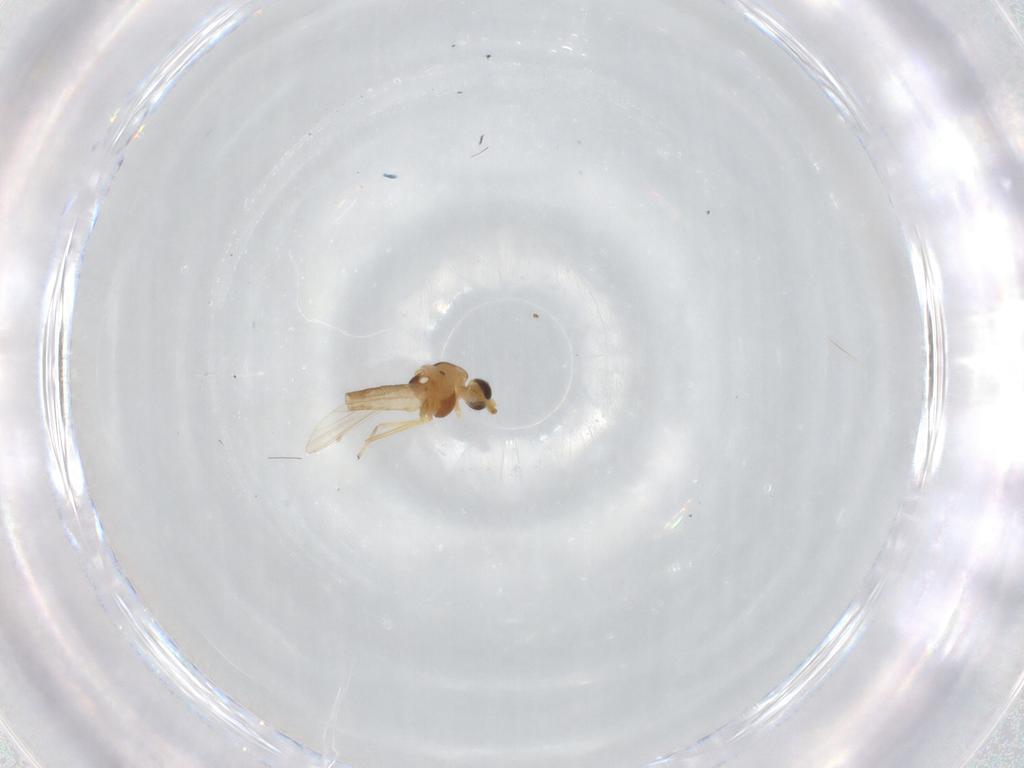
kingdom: Animalia
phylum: Arthropoda
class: Insecta
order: Diptera
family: Chironomidae
